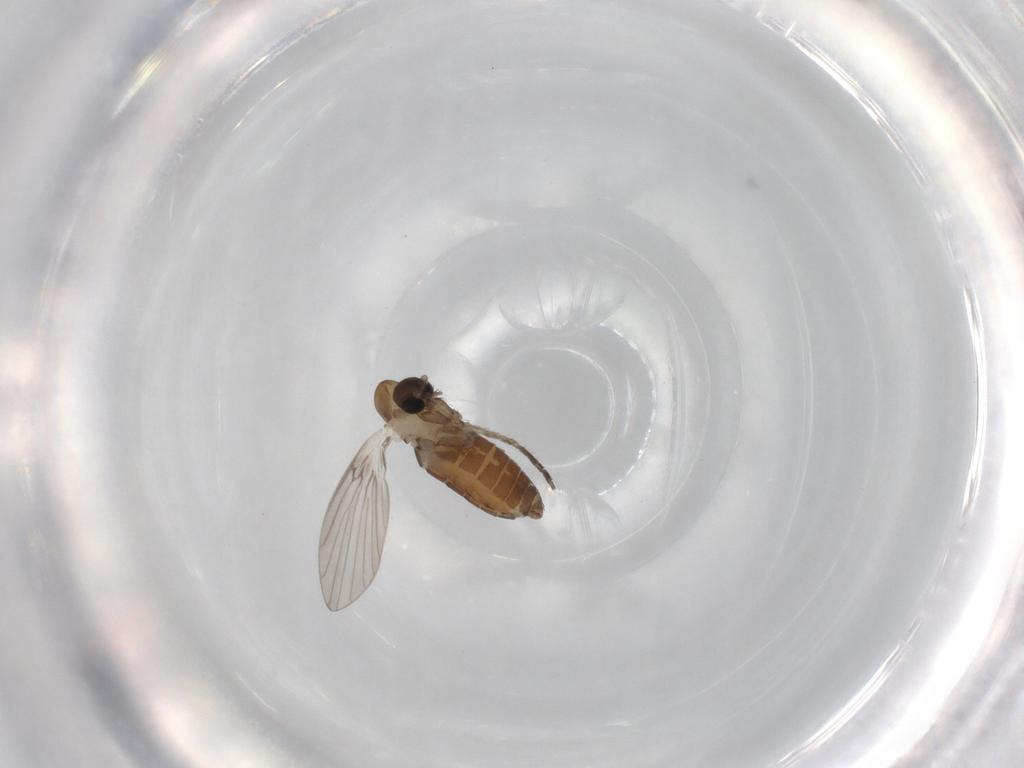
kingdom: Animalia
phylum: Arthropoda
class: Insecta
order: Diptera
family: Psychodidae
